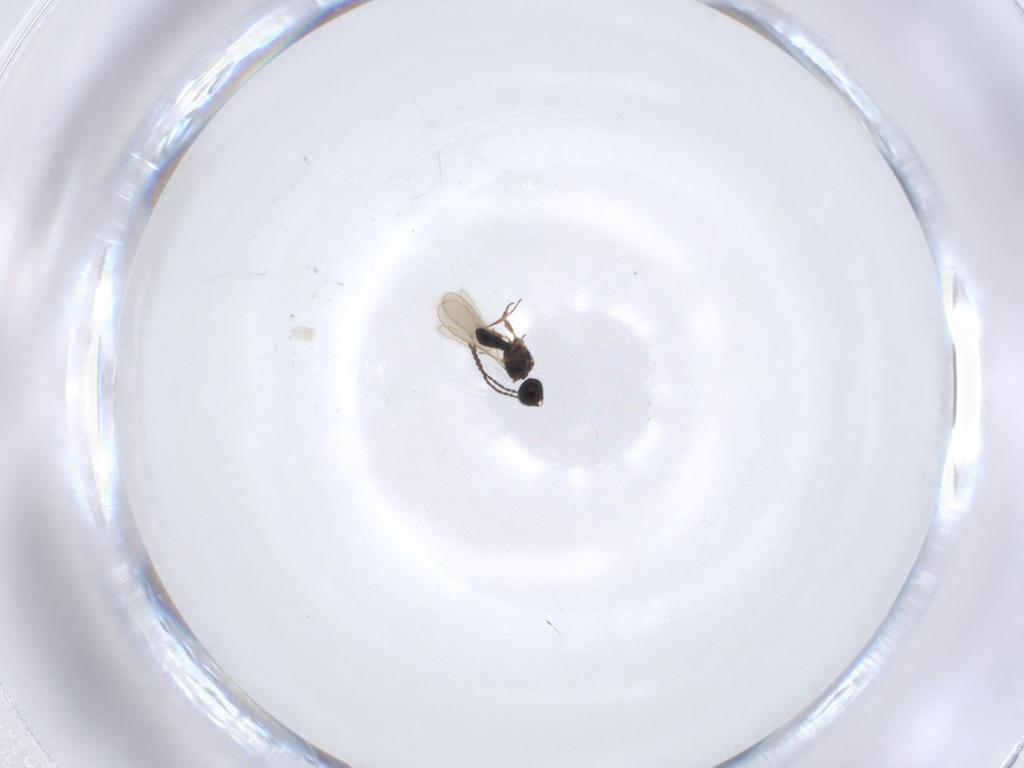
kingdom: Animalia
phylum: Arthropoda
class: Insecta
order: Hymenoptera
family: Scelionidae
